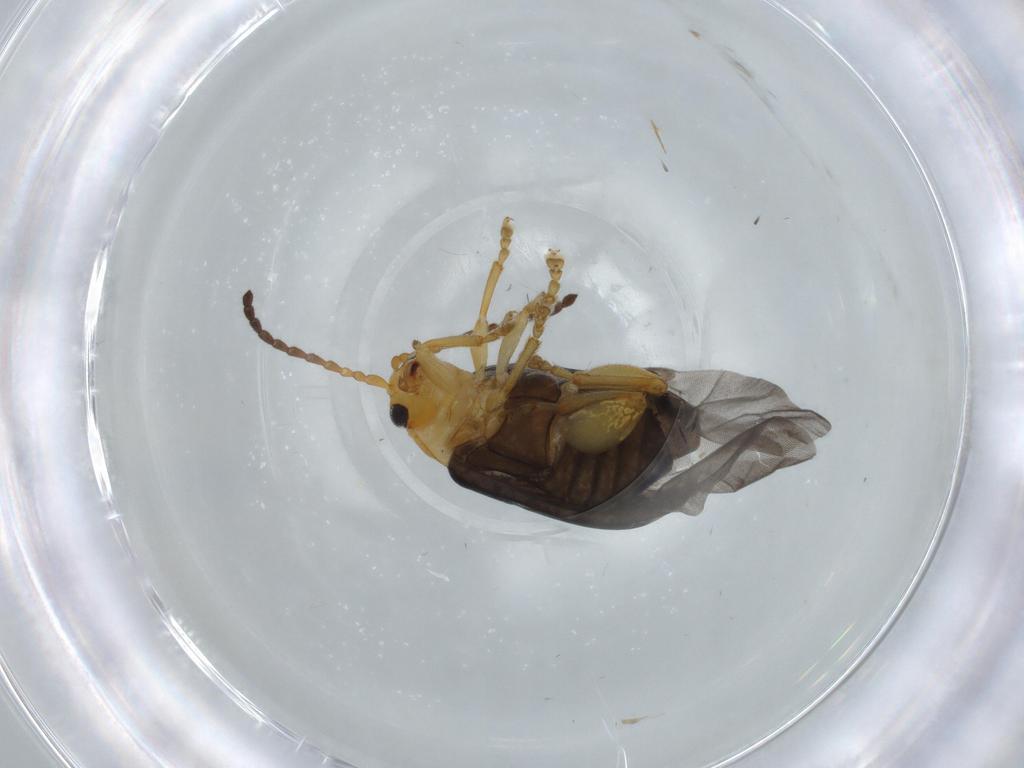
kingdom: Animalia
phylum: Arthropoda
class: Insecta
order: Coleoptera
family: Chrysomelidae
